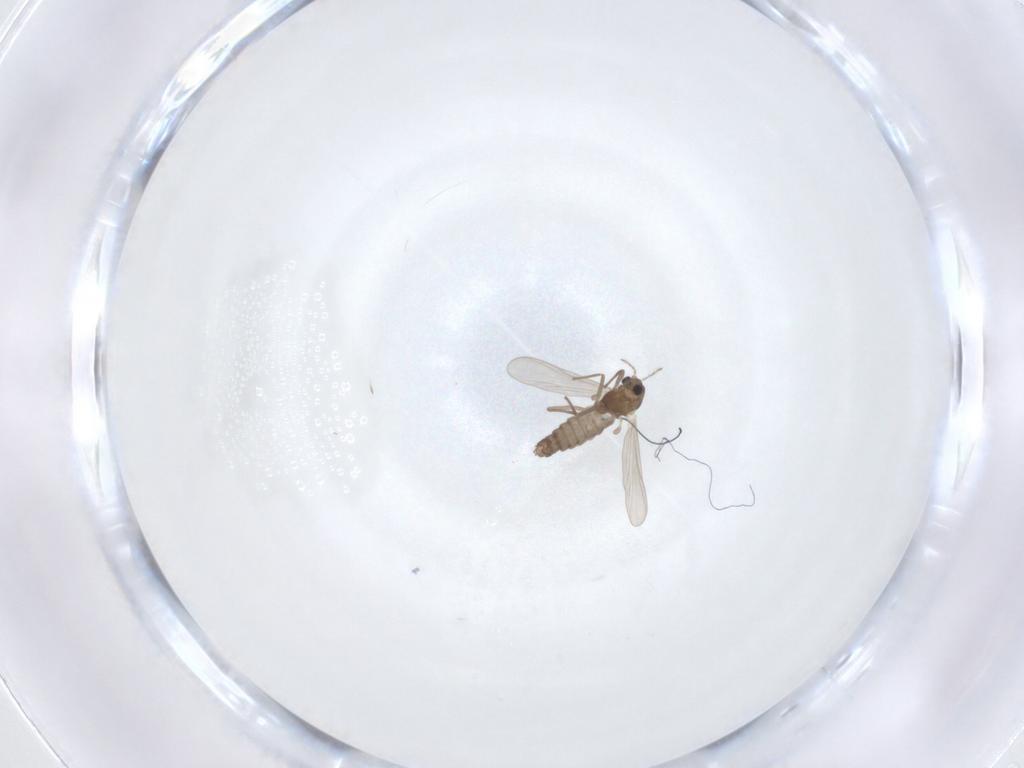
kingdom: Animalia
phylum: Arthropoda
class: Insecta
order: Diptera
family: Chironomidae
